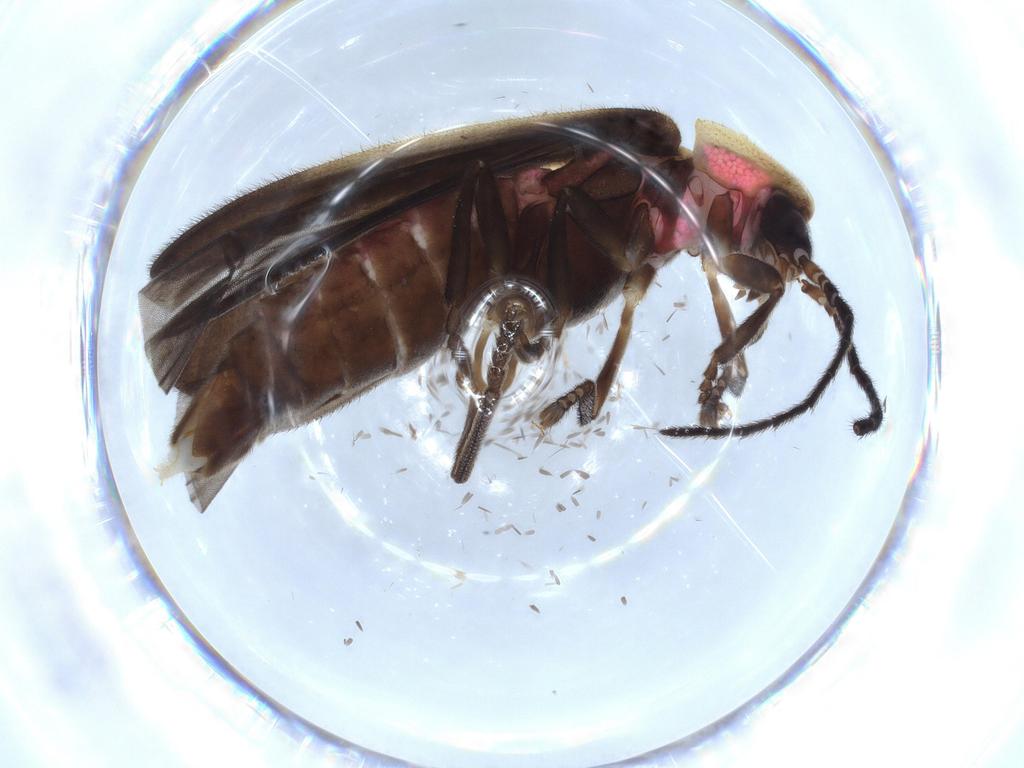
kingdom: Animalia
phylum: Arthropoda
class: Insecta
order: Coleoptera
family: Lampyridae
